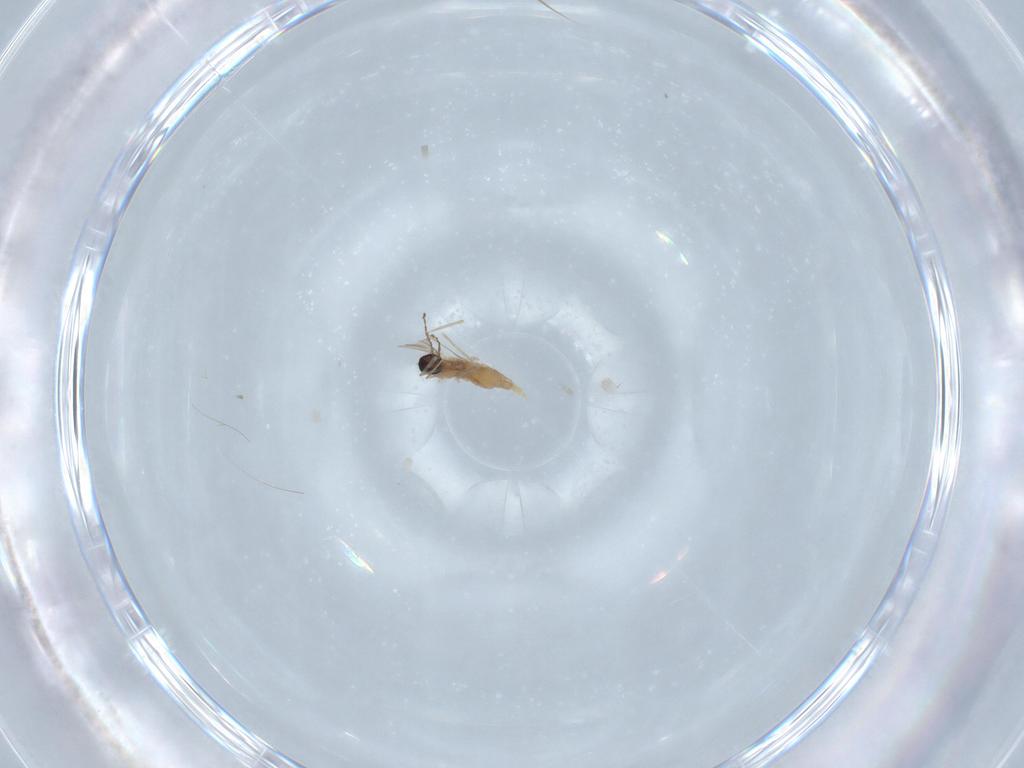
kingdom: Animalia
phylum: Arthropoda
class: Insecta
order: Diptera
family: Cecidomyiidae
